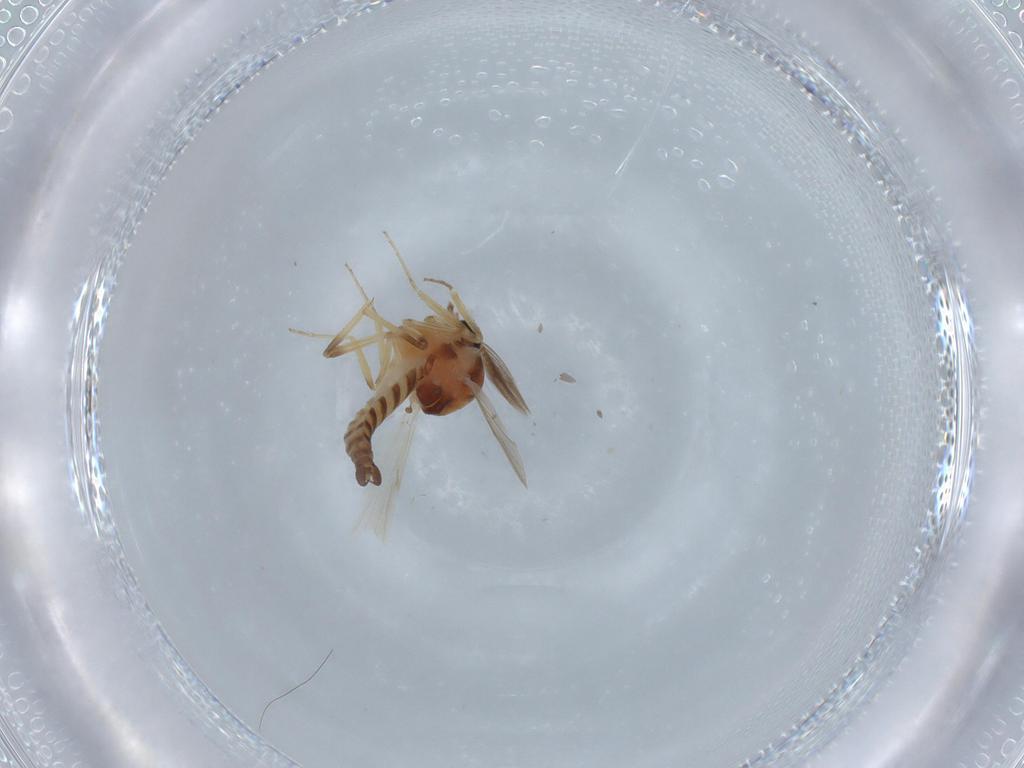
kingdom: Animalia
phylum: Arthropoda
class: Insecta
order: Diptera
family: Ceratopogonidae
